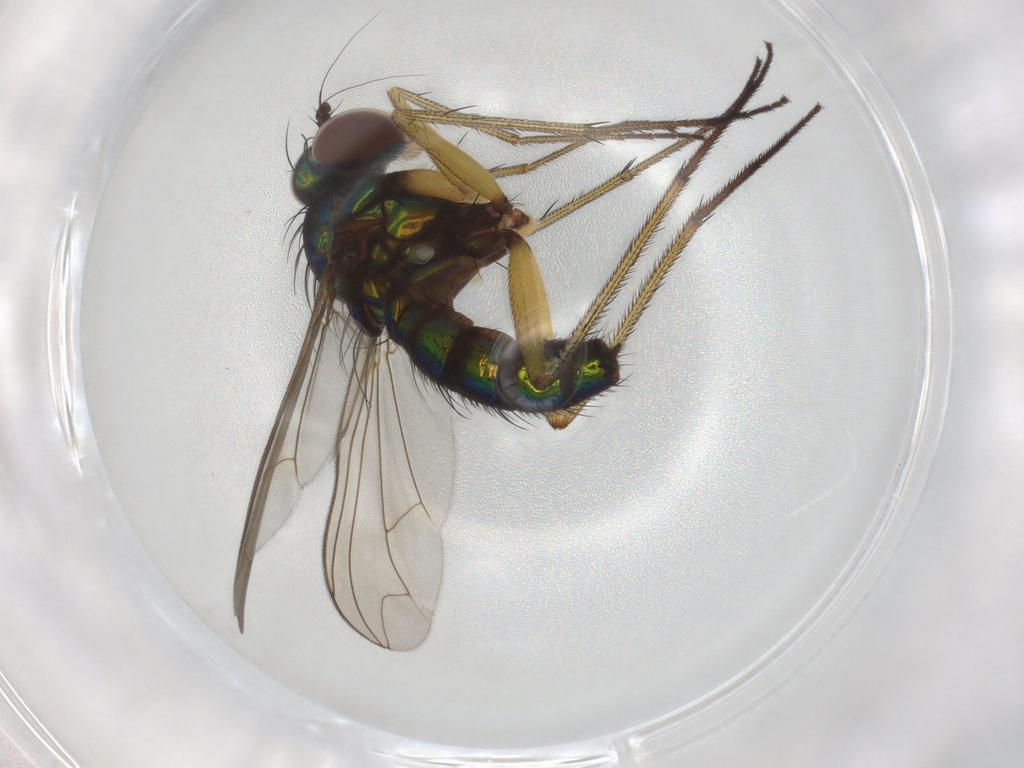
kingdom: Animalia
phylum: Arthropoda
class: Insecta
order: Diptera
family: Dolichopodidae
